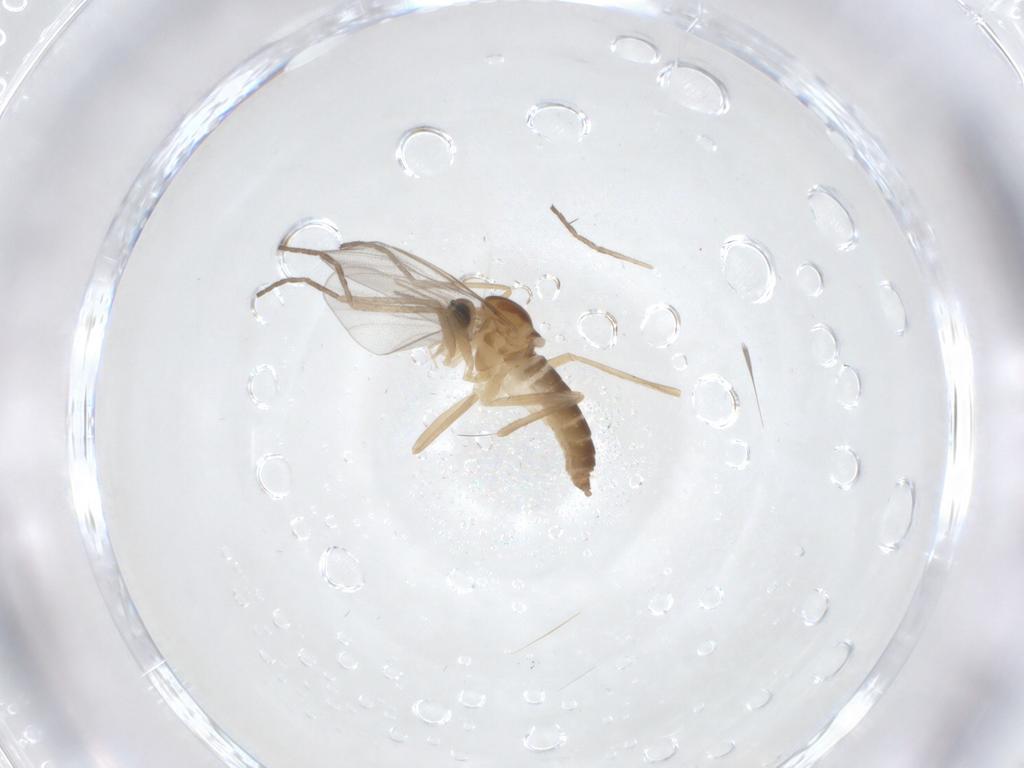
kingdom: Animalia
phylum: Arthropoda
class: Insecta
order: Diptera
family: Cecidomyiidae
